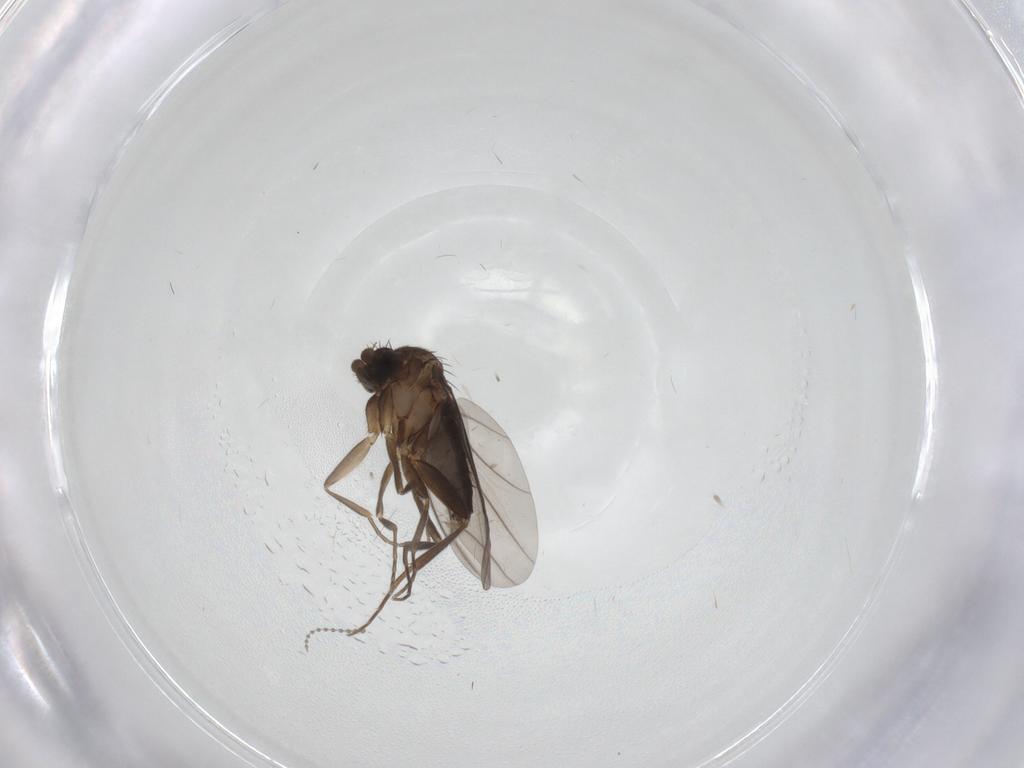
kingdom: Animalia
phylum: Arthropoda
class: Insecta
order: Diptera
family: Psychodidae
